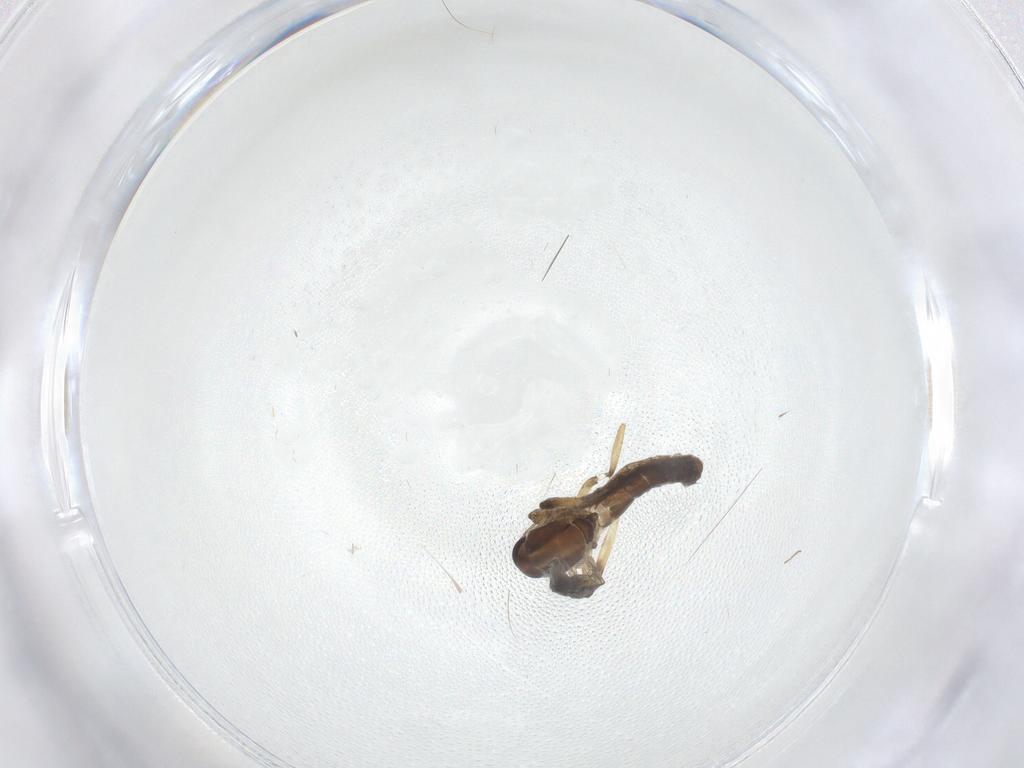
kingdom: Animalia
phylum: Arthropoda
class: Insecta
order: Diptera
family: Ceratopogonidae
